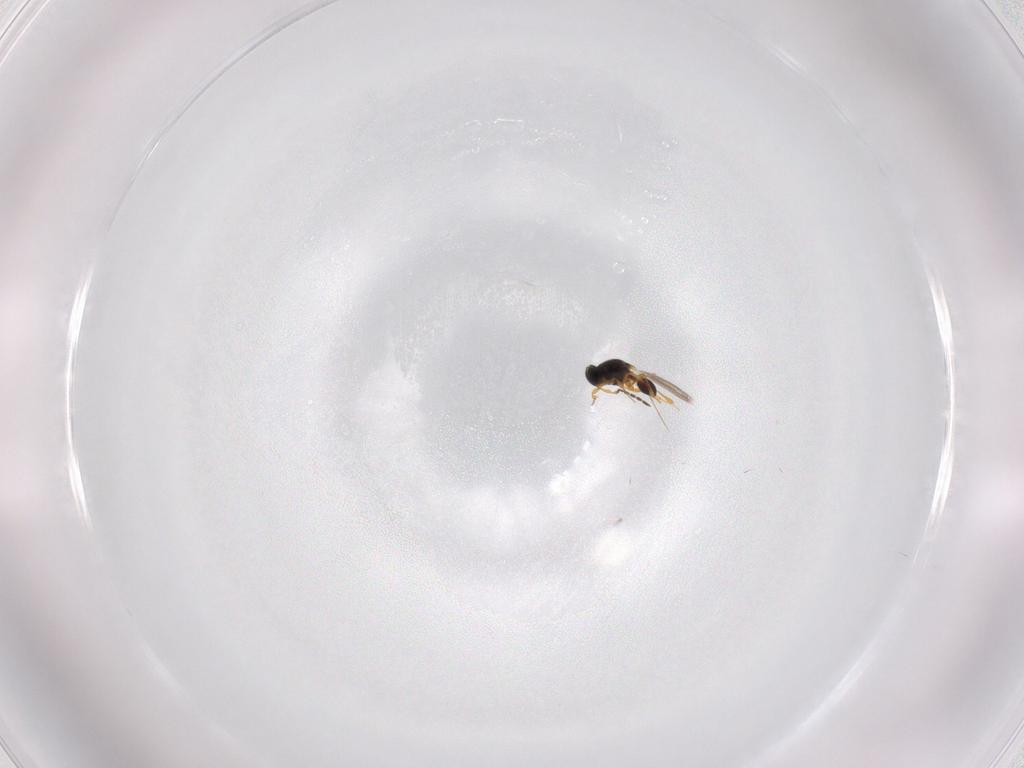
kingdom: Animalia
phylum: Arthropoda
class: Insecta
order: Hymenoptera
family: Platygastridae
